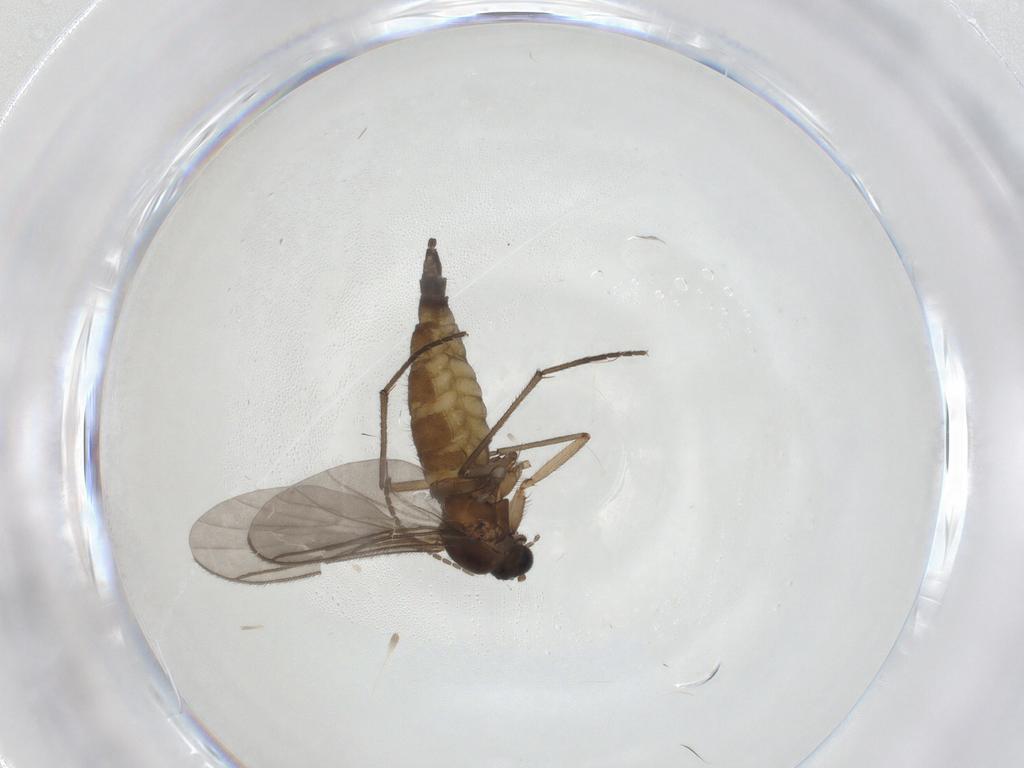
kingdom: Animalia
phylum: Arthropoda
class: Insecta
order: Diptera
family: Sciaridae
